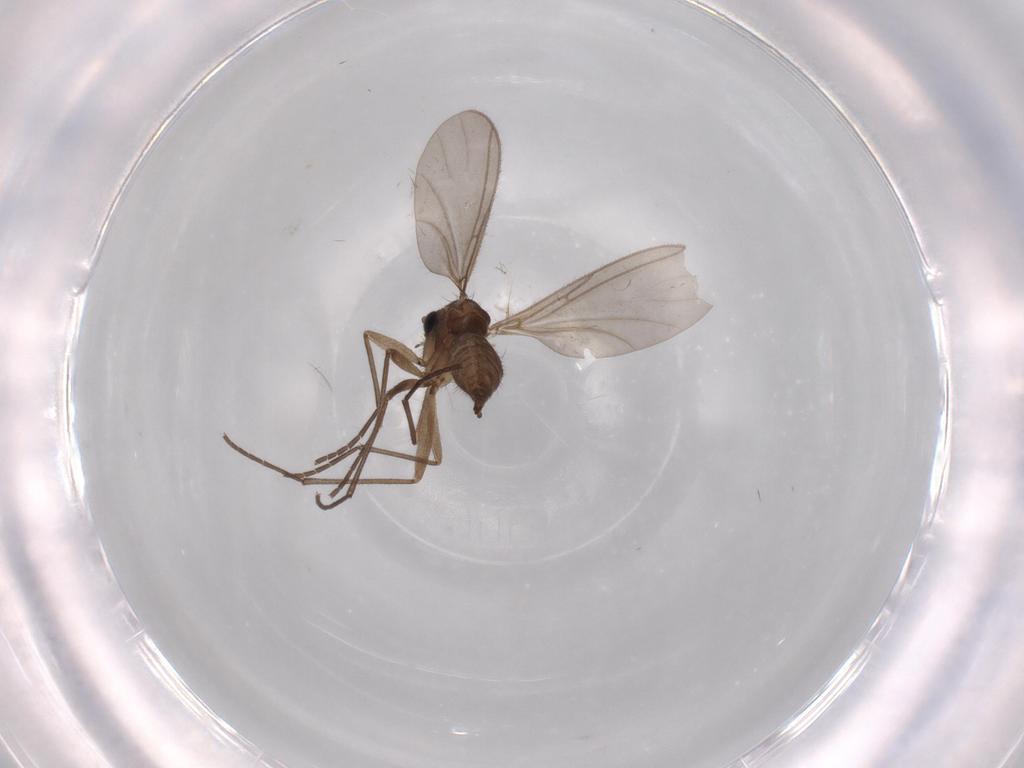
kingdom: Animalia
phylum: Arthropoda
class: Insecta
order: Diptera
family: Sciaridae
